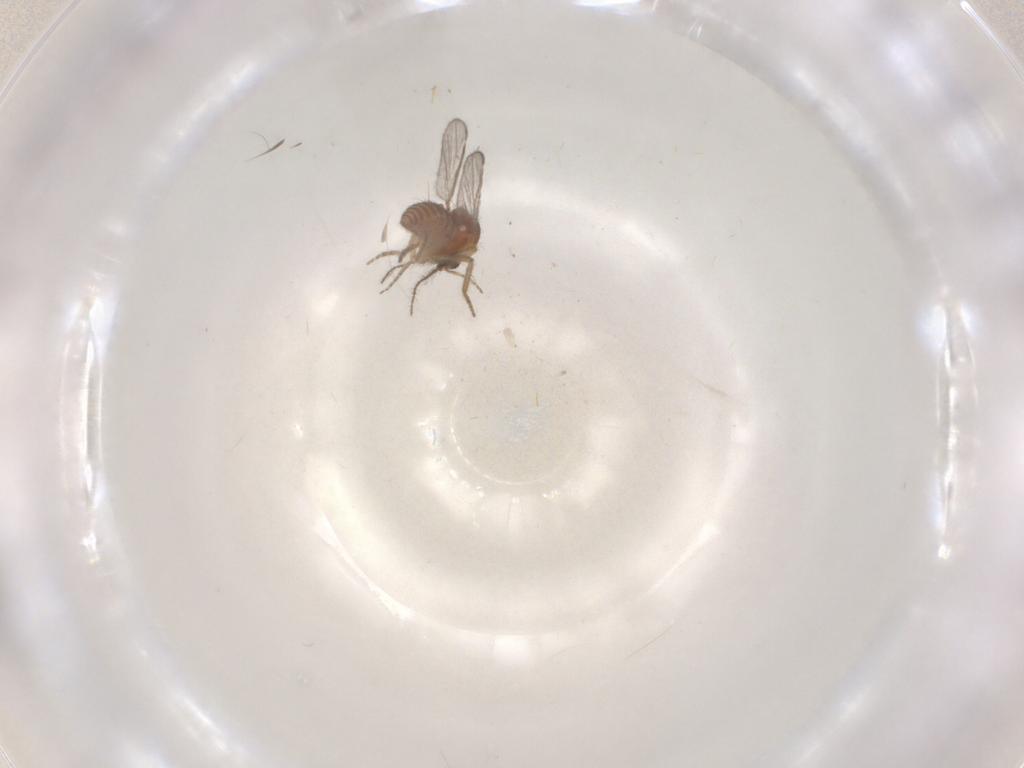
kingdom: Animalia
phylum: Arthropoda
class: Insecta
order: Diptera
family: Ceratopogonidae
